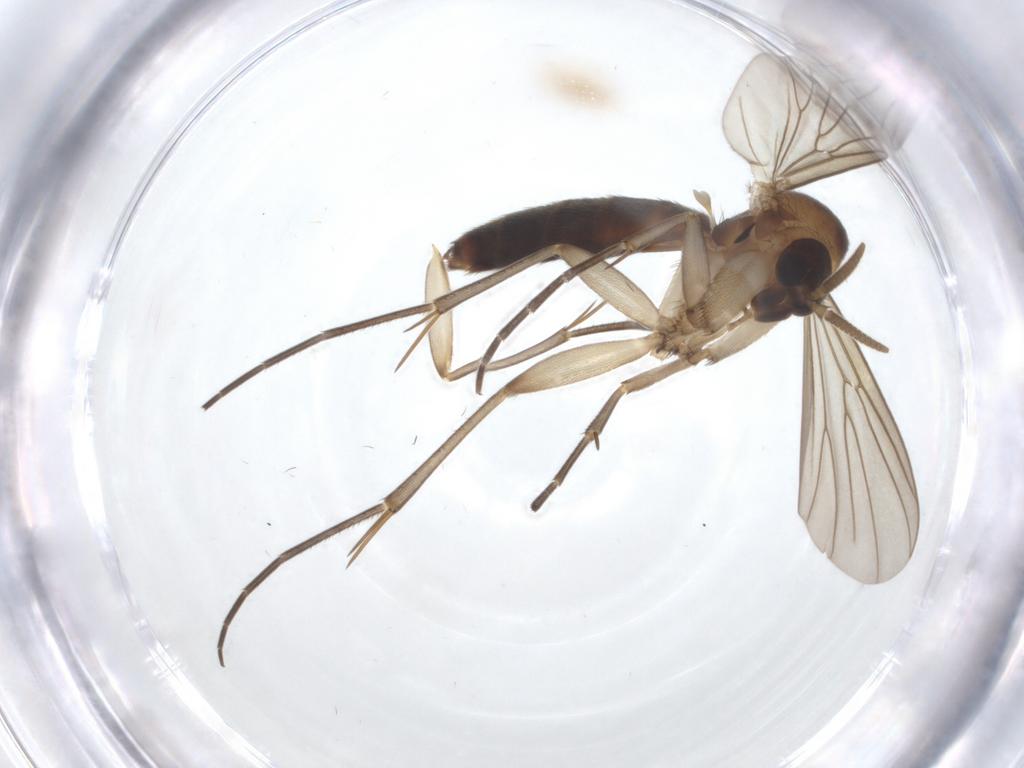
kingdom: Animalia
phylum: Arthropoda
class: Insecta
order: Diptera
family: Mycetophilidae
